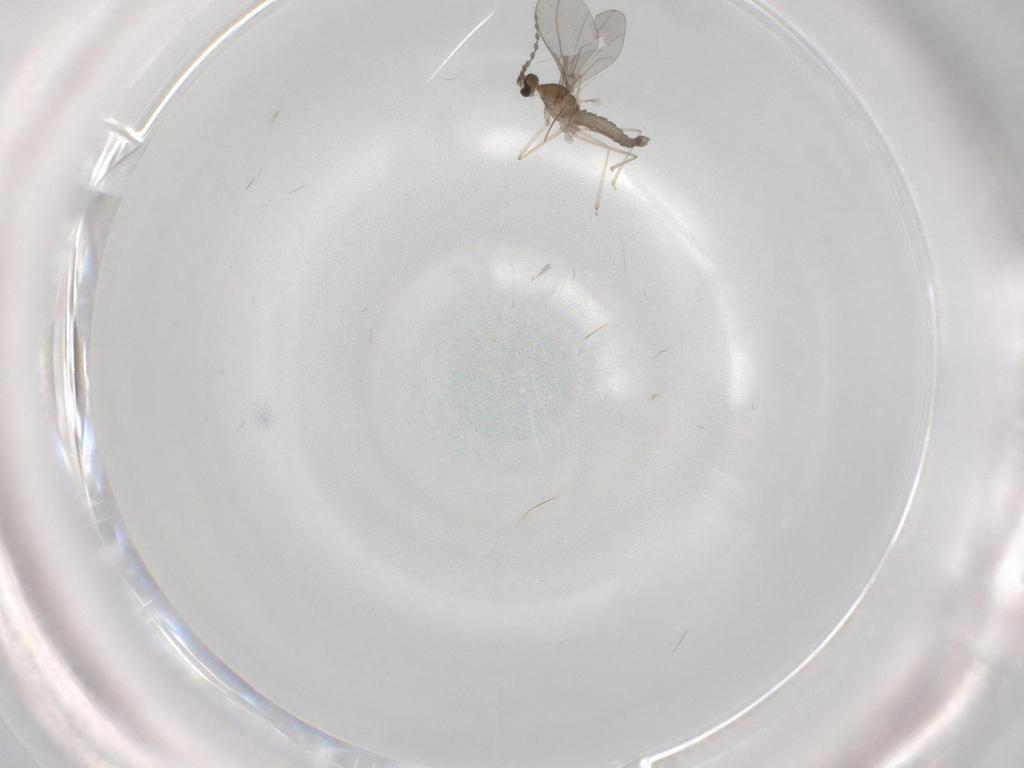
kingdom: Animalia
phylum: Arthropoda
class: Insecta
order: Diptera
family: Cecidomyiidae
